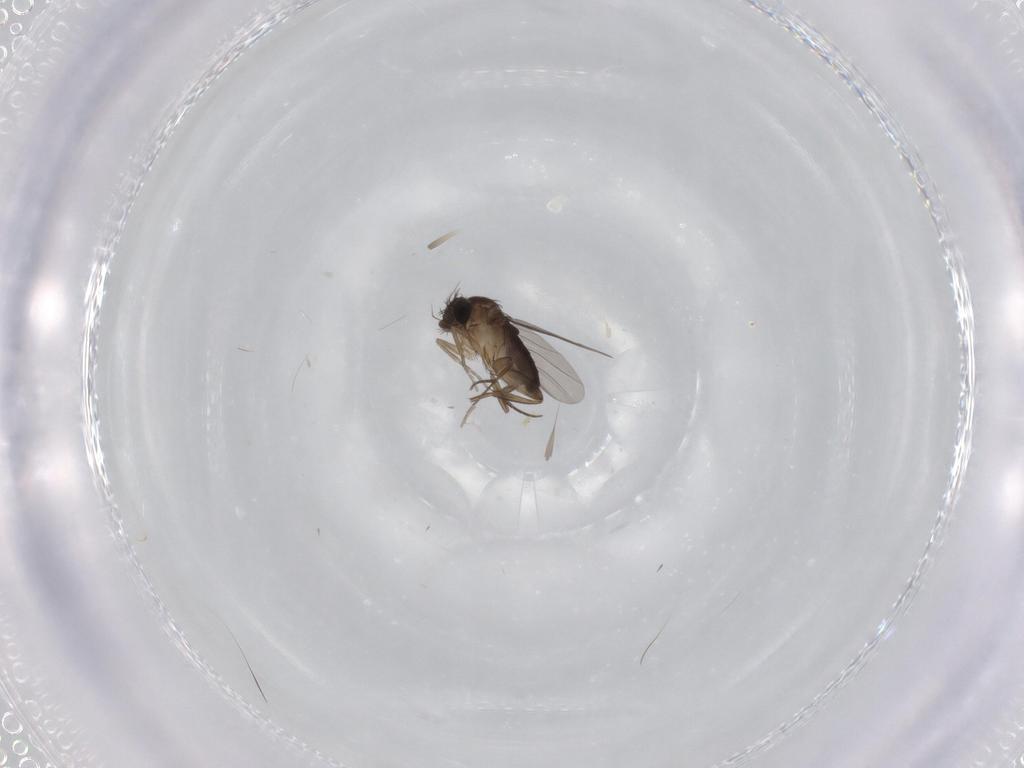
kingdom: Animalia
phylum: Arthropoda
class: Insecta
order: Diptera
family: Phoridae
